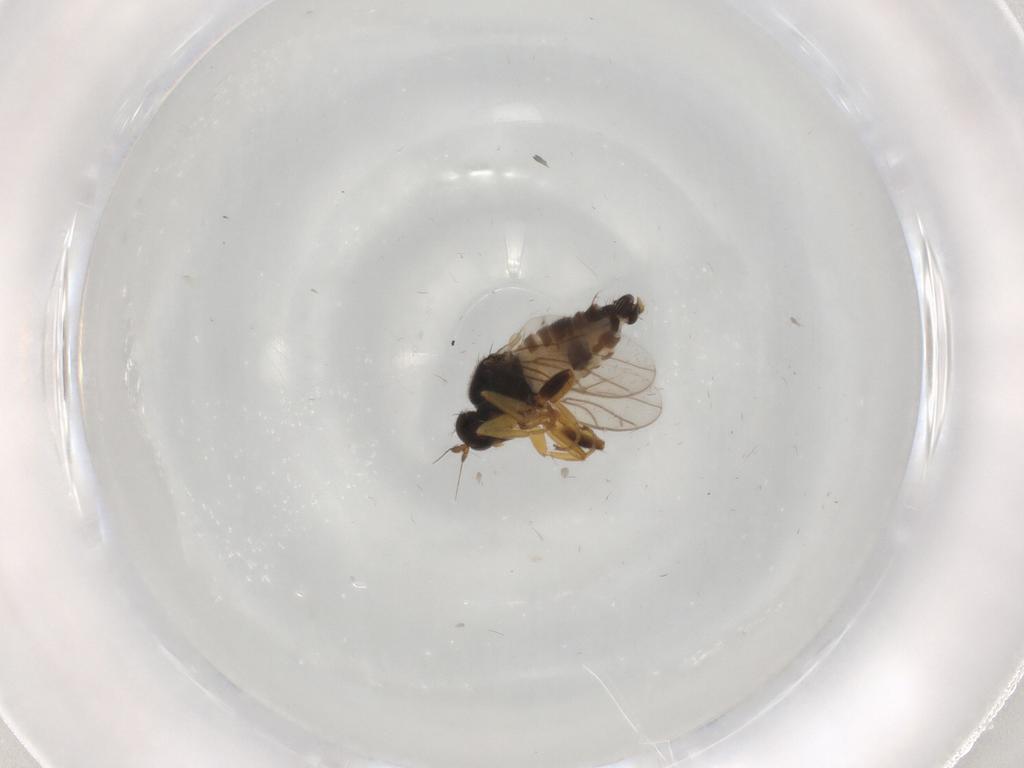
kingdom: Animalia
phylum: Arthropoda
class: Insecta
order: Diptera
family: Hybotidae
